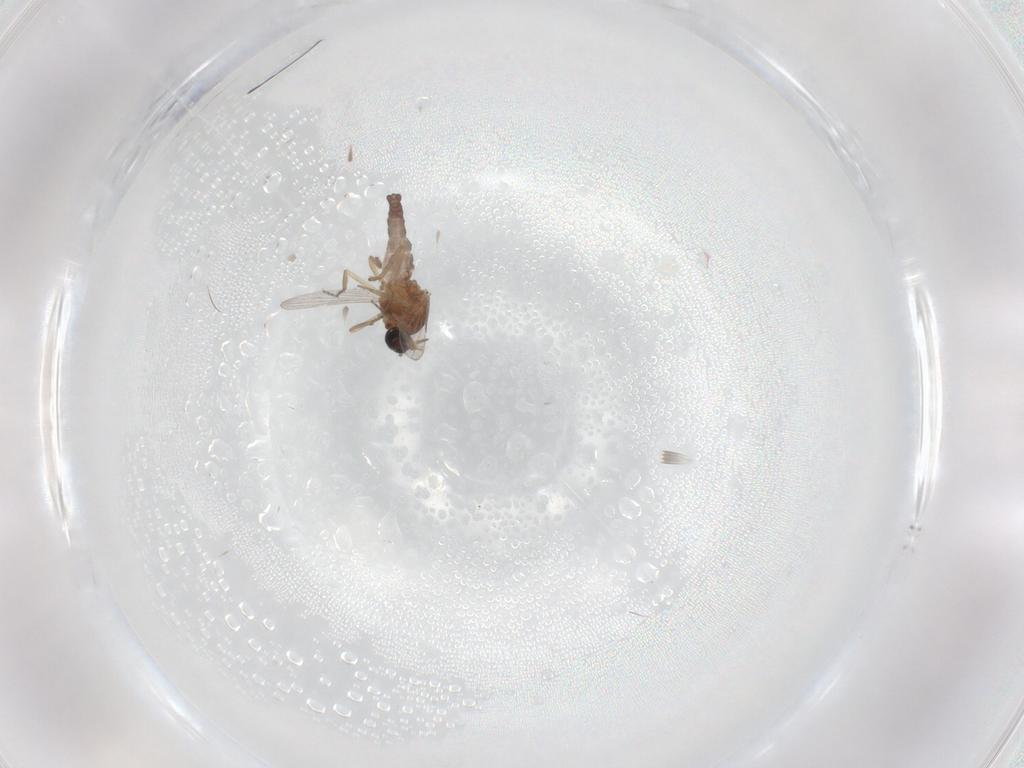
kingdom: Animalia
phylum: Arthropoda
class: Insecta
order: Diptera
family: Ceratopogonidae
